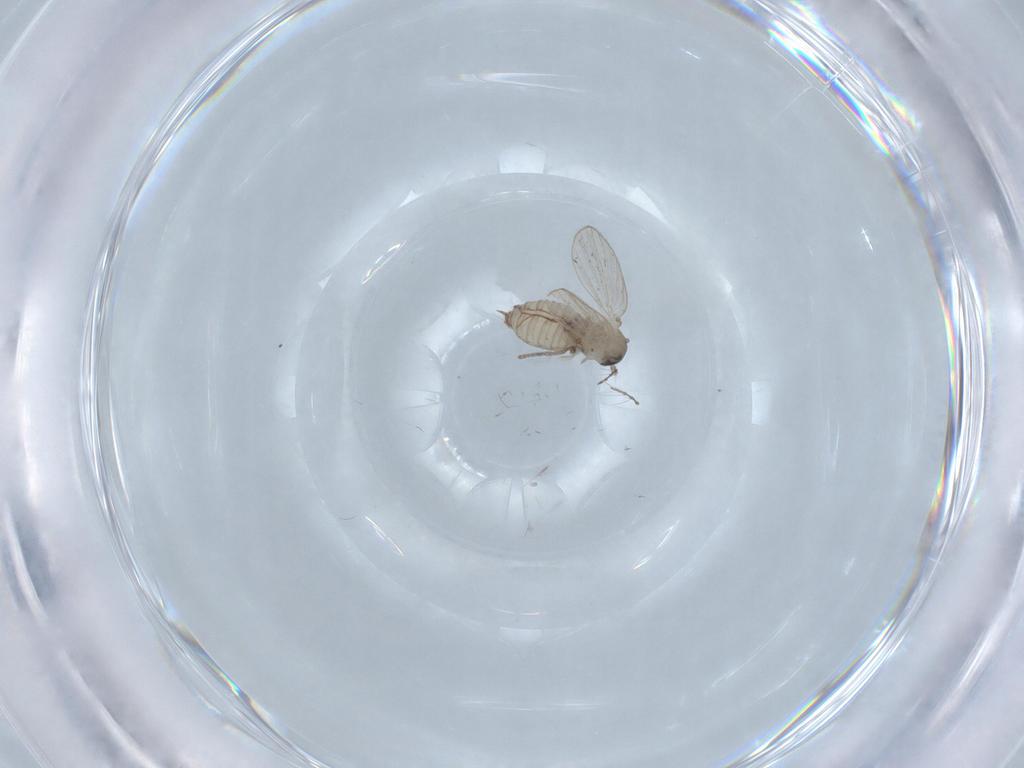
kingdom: Animalia
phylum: Arthropoda
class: Insecta
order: Diptera
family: Psychodidae
